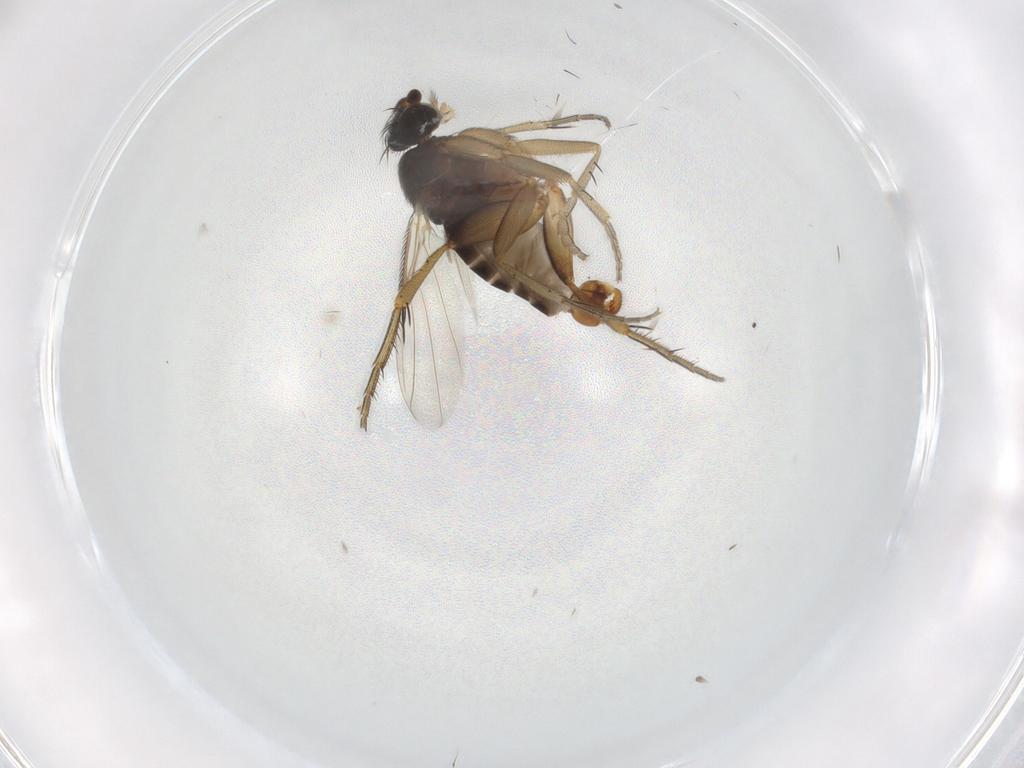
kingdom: Animalia
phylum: Arthropoda
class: Insecta
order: Diptera
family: Phoridae
